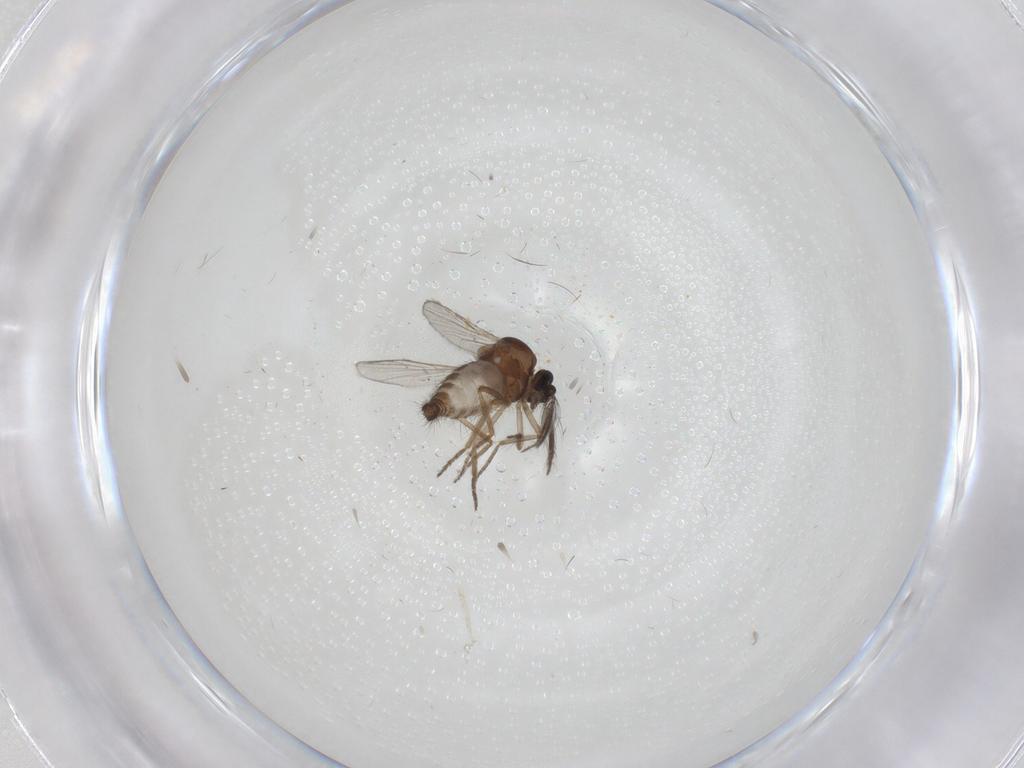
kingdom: Animalia
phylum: Arthropoda
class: Insecta
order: Diptera
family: Ceratopogonidae
